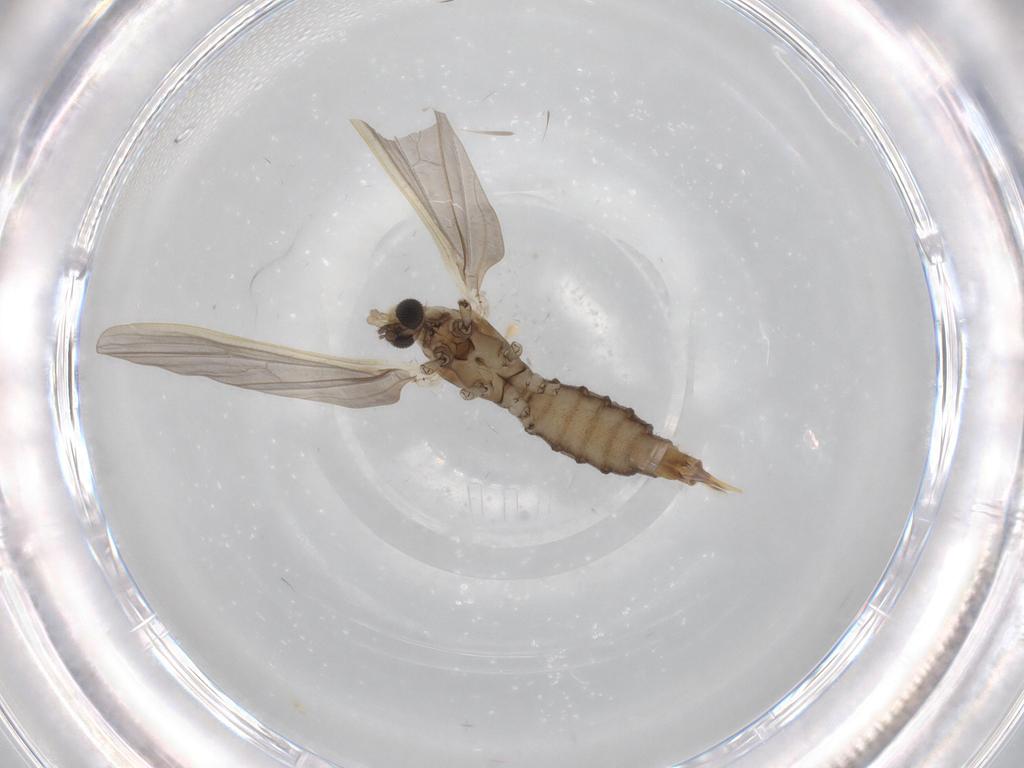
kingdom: Animalia
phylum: Arthropoda
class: Insecta
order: Diptera
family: Limoniidae
